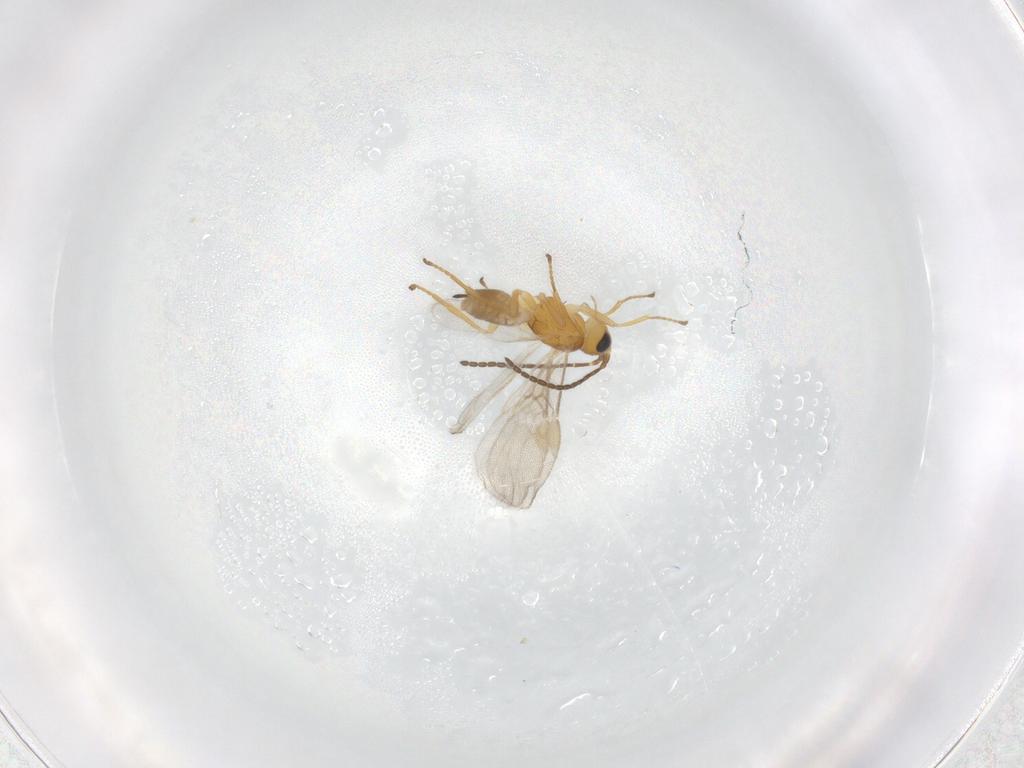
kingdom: Animalia
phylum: Arthropoda
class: Insecta
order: Hymenoptera
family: Braconidae
